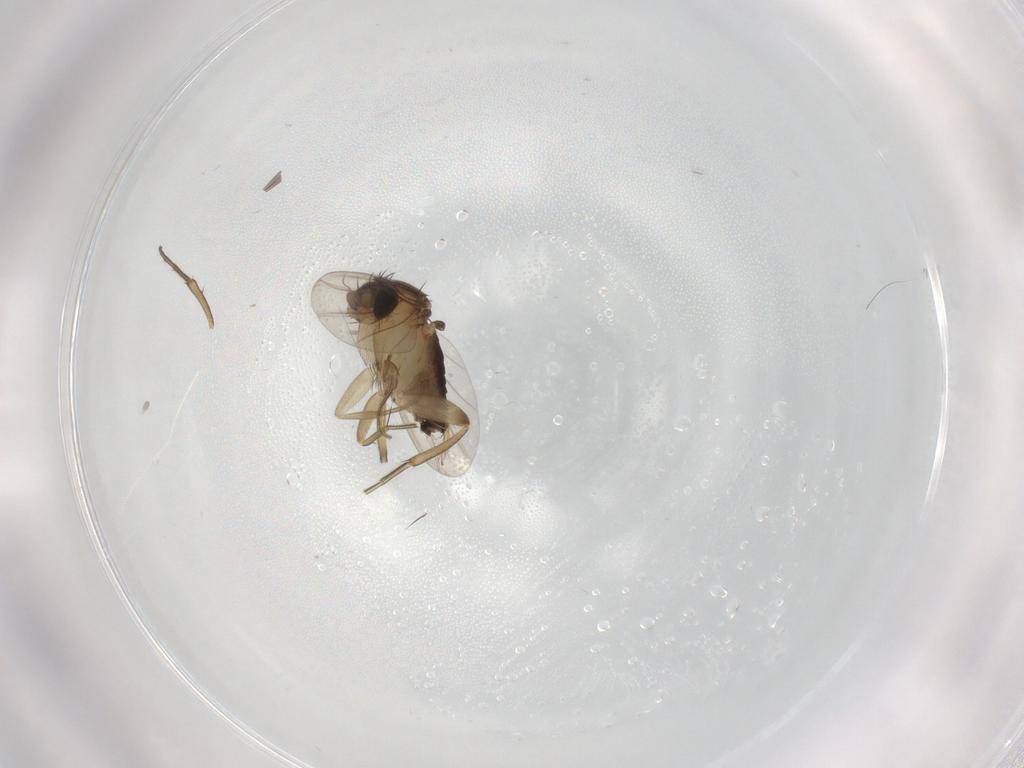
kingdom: Animalia
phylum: Arthropoda
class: Insecta
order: Diptera
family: Phoridae
